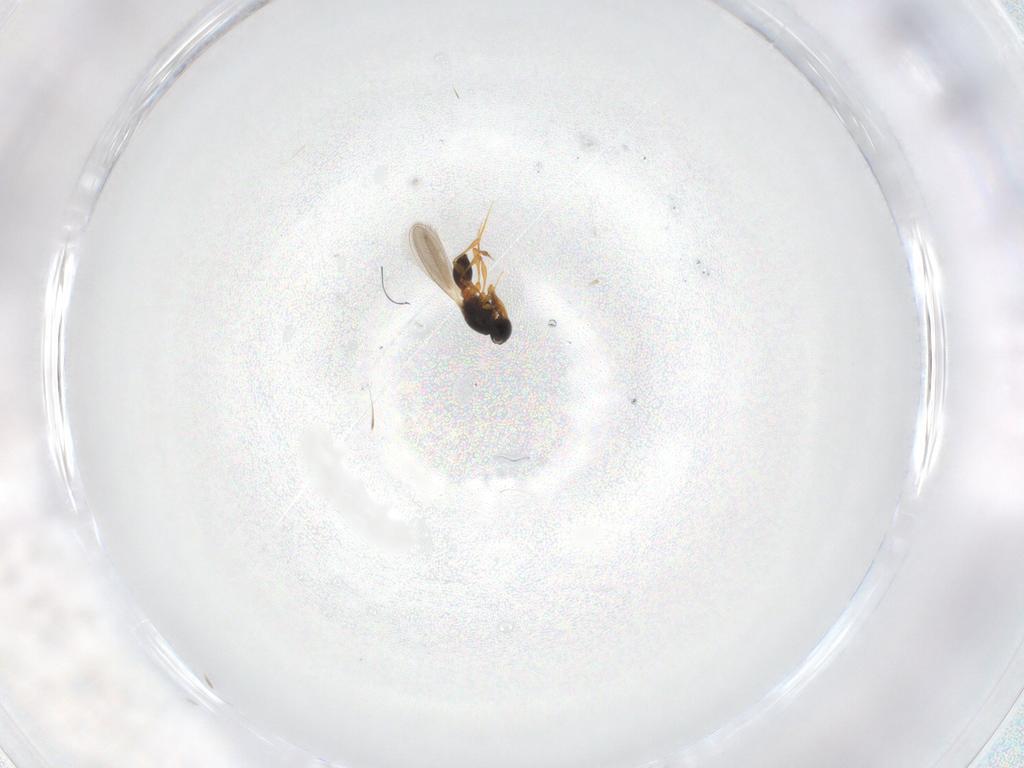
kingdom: Animalia
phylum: Arthropoda
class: Insecta
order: Hymenoptera
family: Platygastridae
